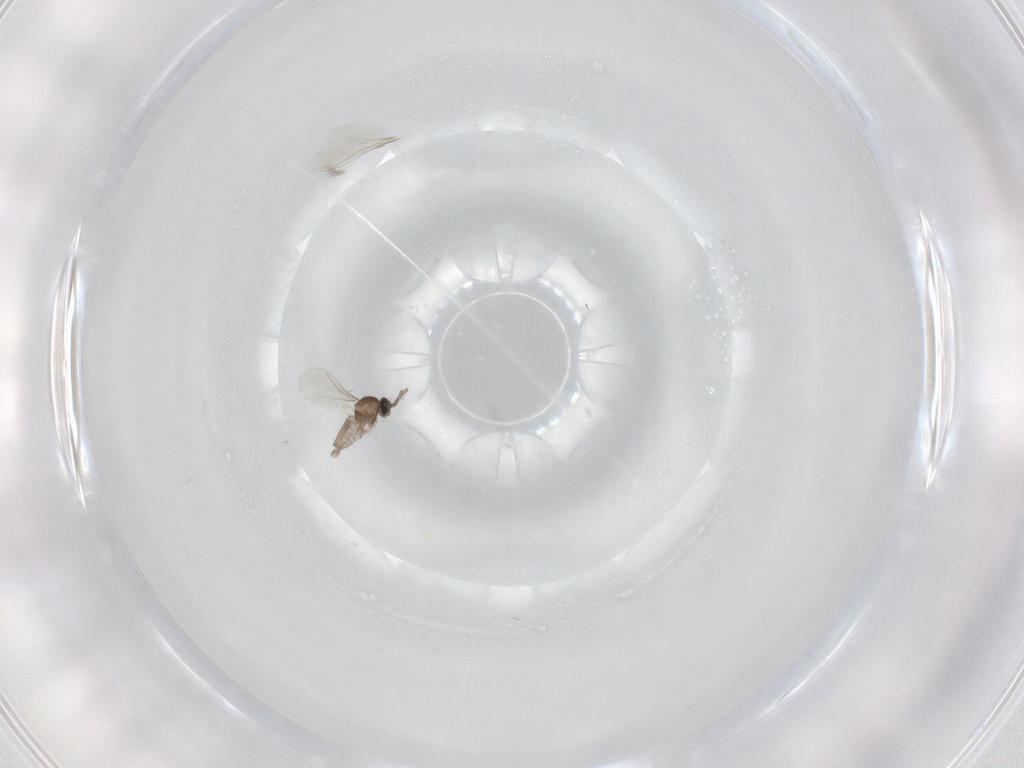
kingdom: Animalia
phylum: Arthropoda
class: Insecta
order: Diptera
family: Cecidomyiidae
